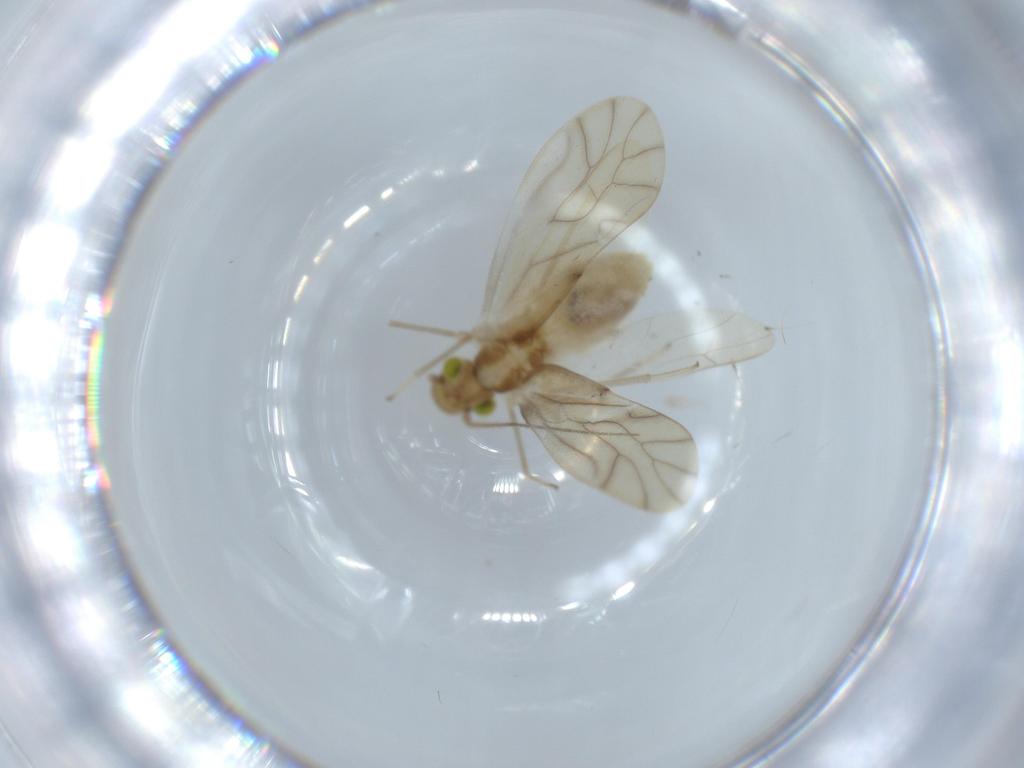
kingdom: Animalia
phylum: Arthropoda
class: Insecta
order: Psocodea
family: Caeciliusidae
